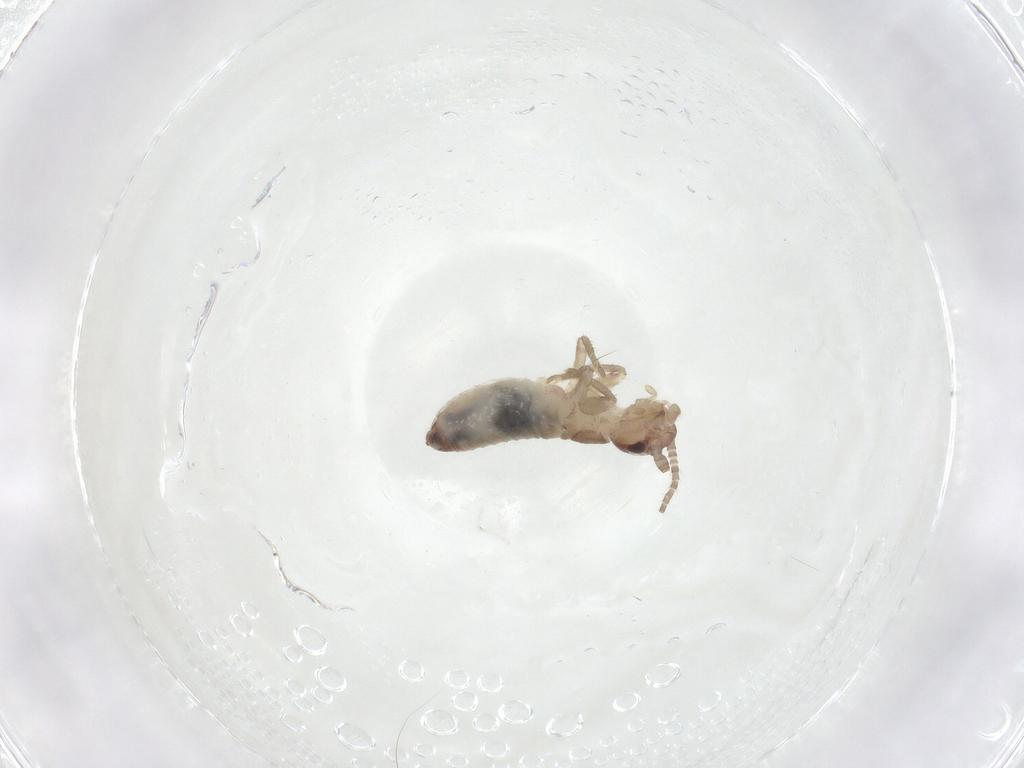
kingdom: Animalia
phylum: Arthropoda
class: Insecta
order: Orthoptera
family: Gryllidae
